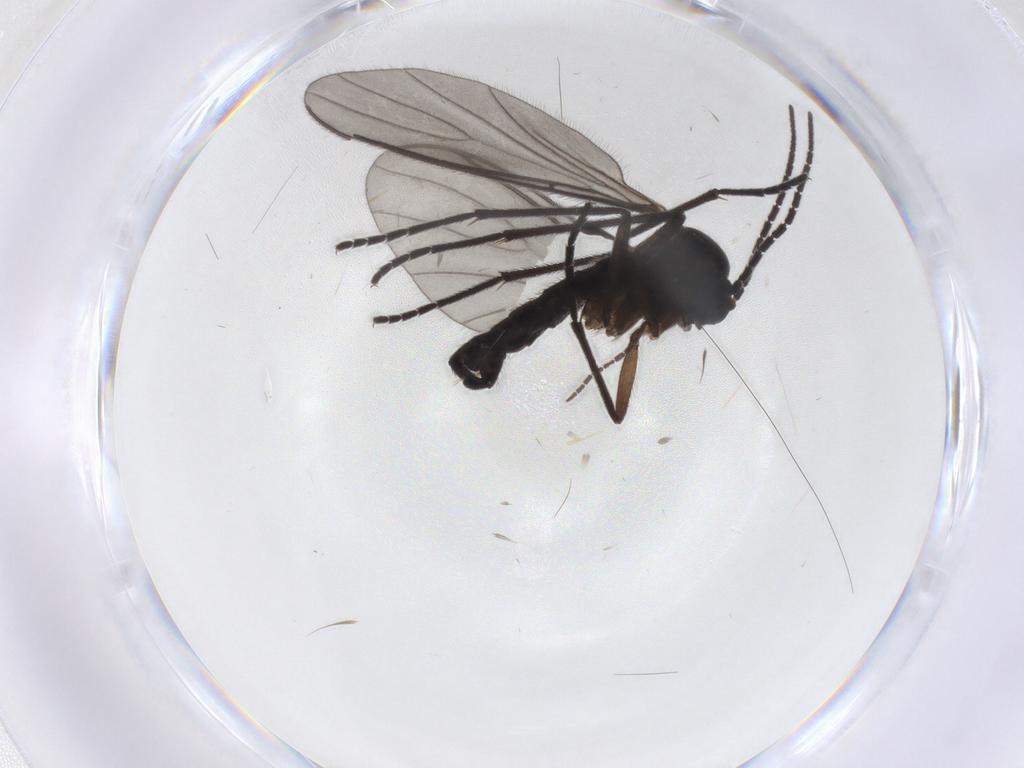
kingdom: Animalia
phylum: Arthropoda
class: Insecta
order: Diptera
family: Sciaridae
